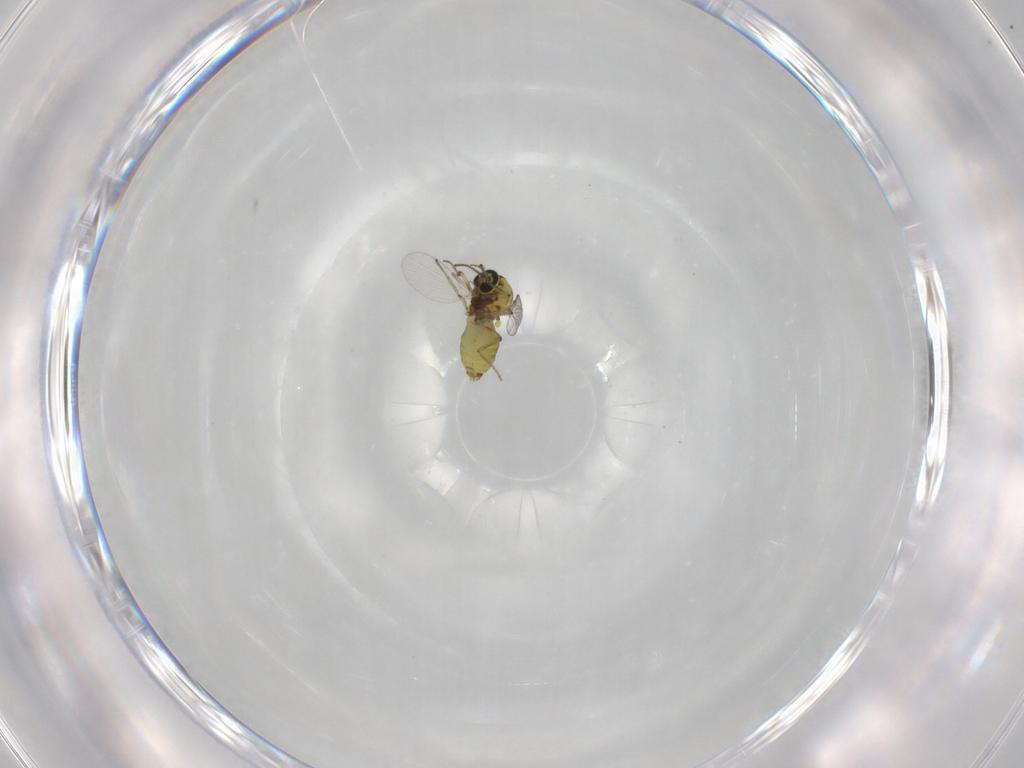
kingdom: Animalia
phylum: Arthropoda
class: Insecta
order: Diptera
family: Ceratopogonidae
